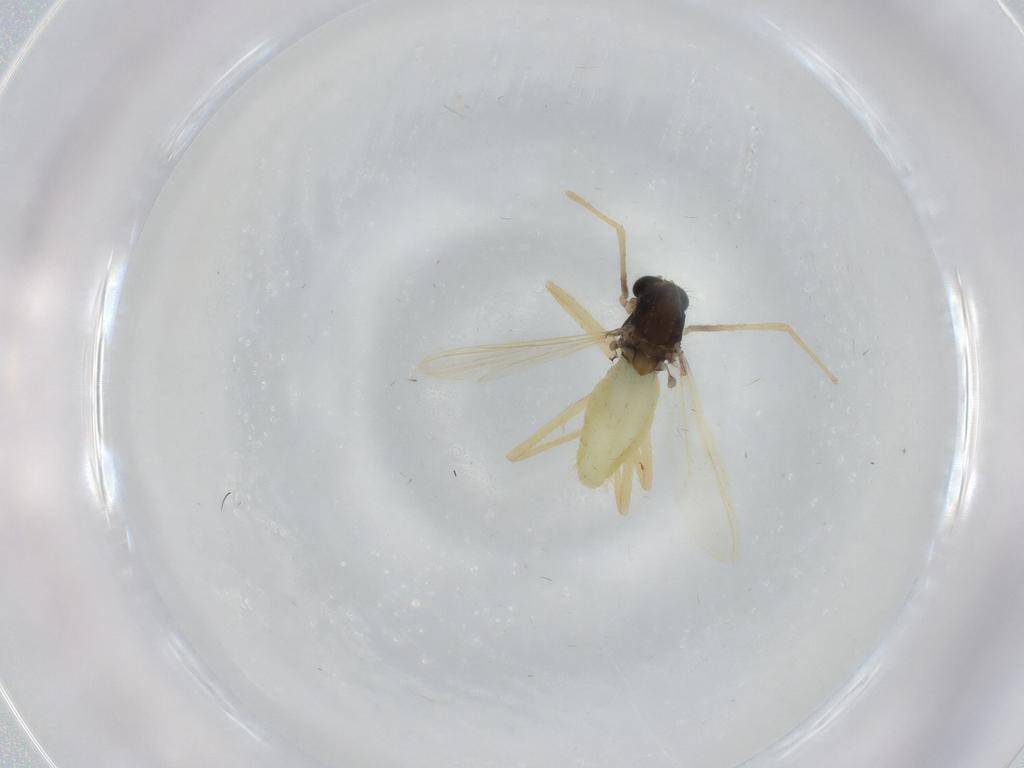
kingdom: Animalia
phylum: Arthropoda
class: Insecta
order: Diptera
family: Chironomidae
